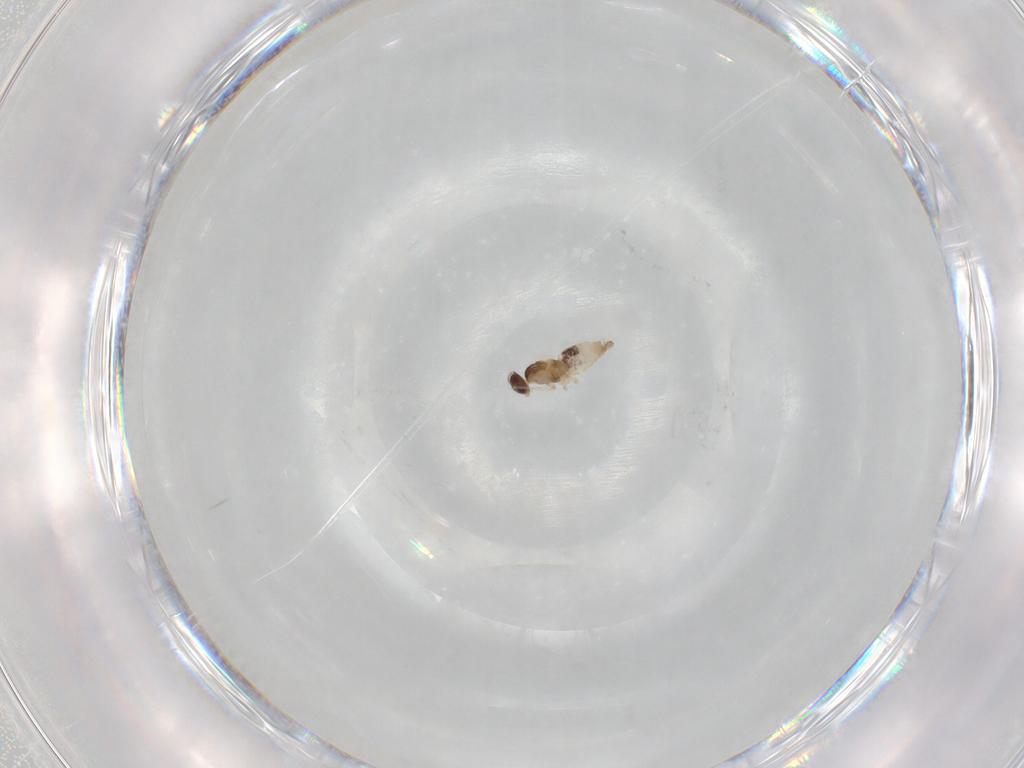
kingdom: Animalia
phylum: Arthropoda
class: Insecta
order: Diptera
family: Cecidomyiidae
